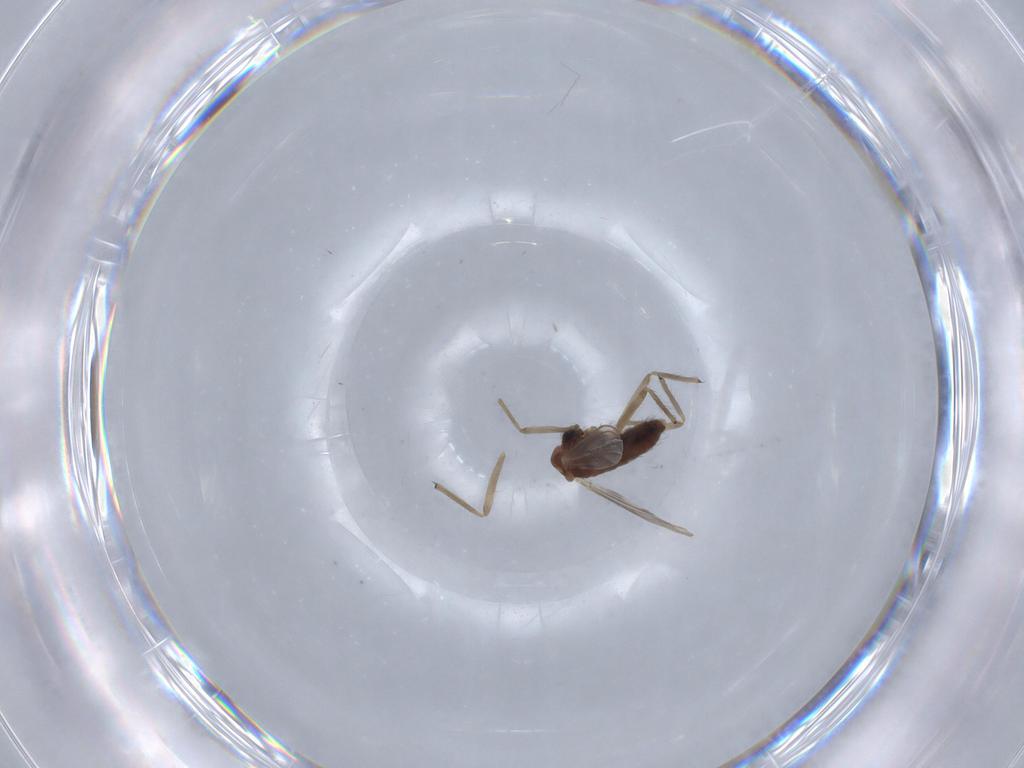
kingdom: Animalia
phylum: Arthropoda
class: Insecta
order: Diptera
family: Chironomidae
